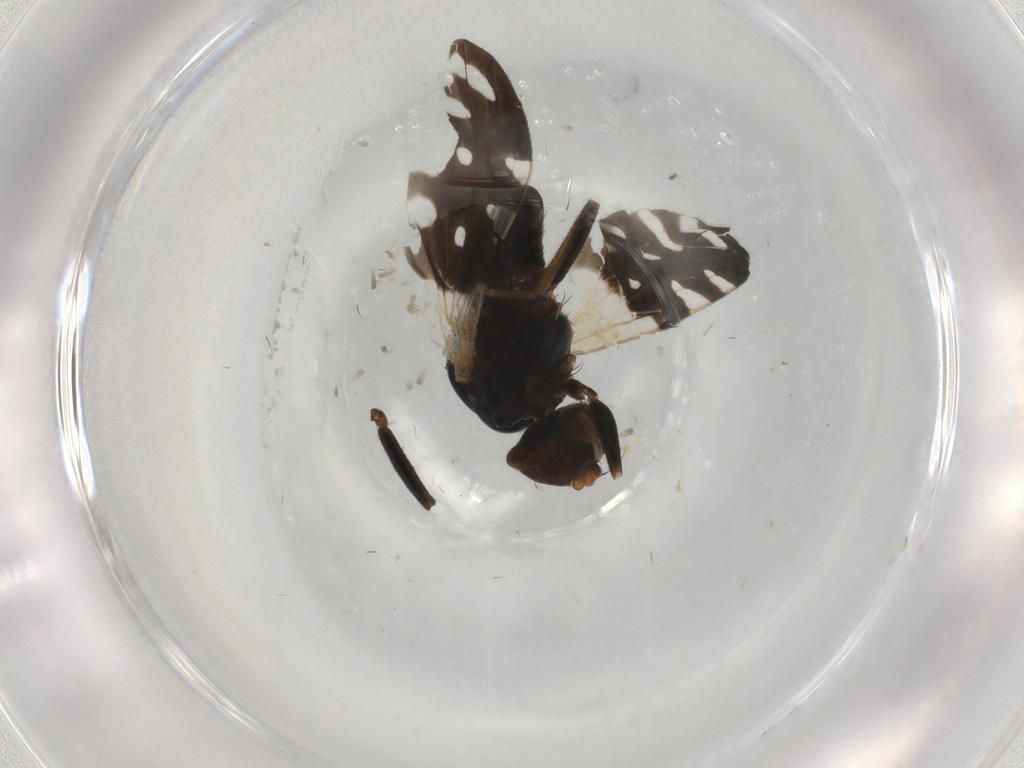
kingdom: Animalia
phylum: Arthropoda
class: Insecta
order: Diptera
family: Tephritidae
